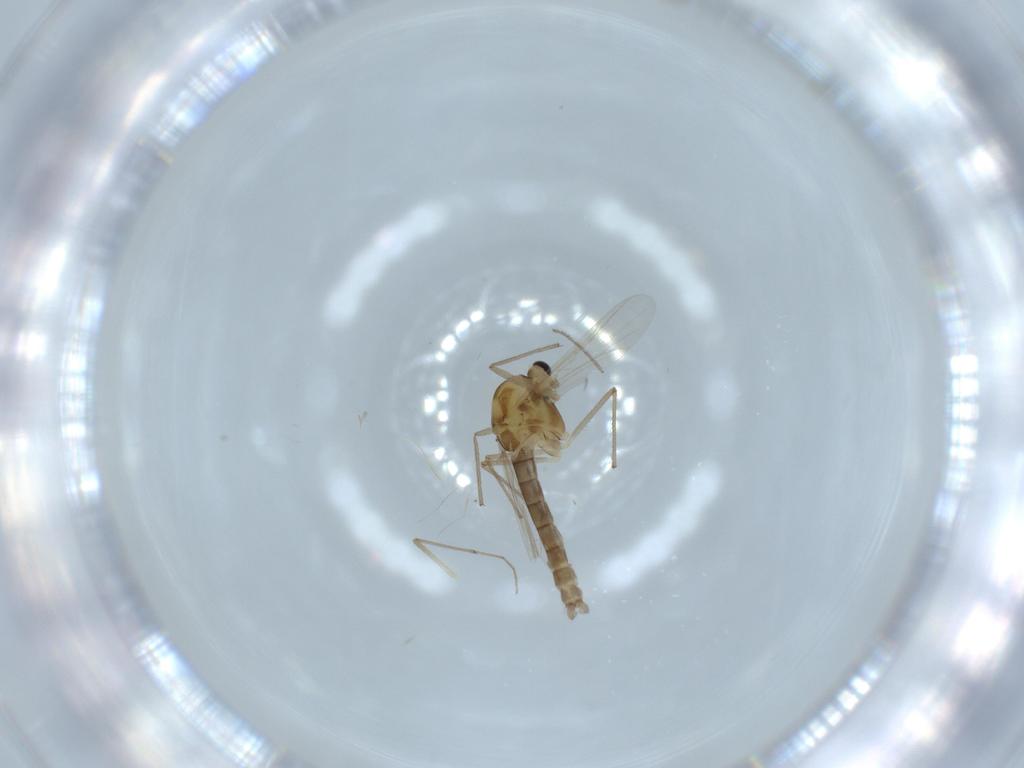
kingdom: Animalia
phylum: Arthropoda
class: Insecta
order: Diptera
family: Chironomidae
